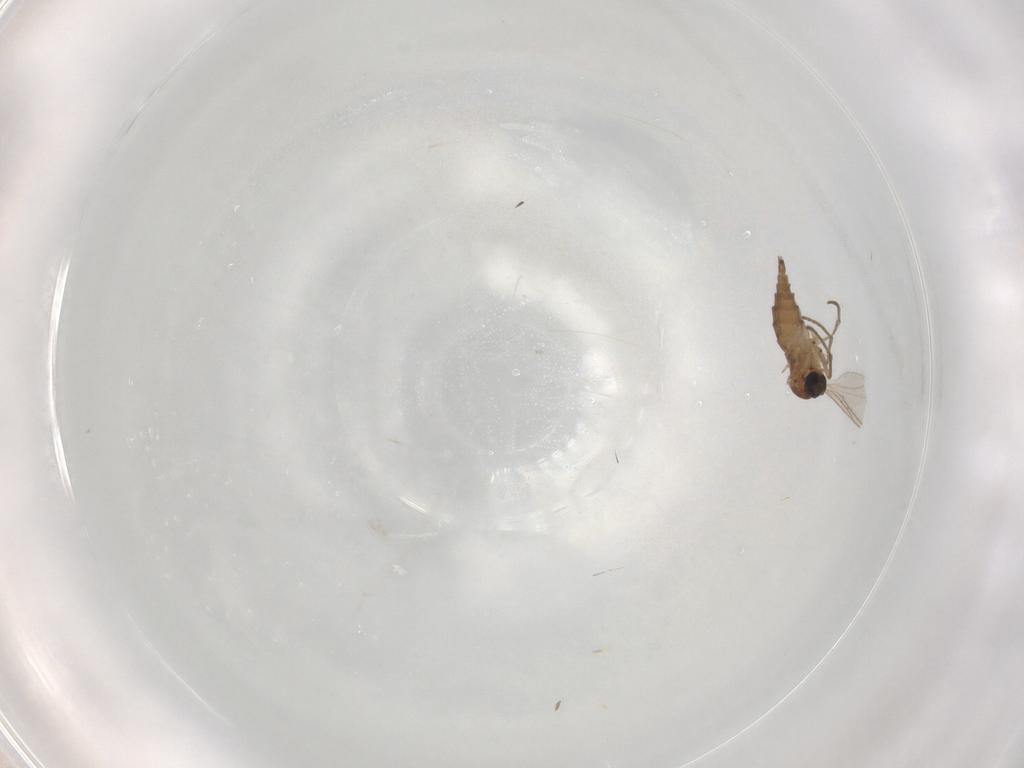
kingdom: Animalia
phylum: Arthropoda
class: Insecta
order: Diptera
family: Sciaridae
